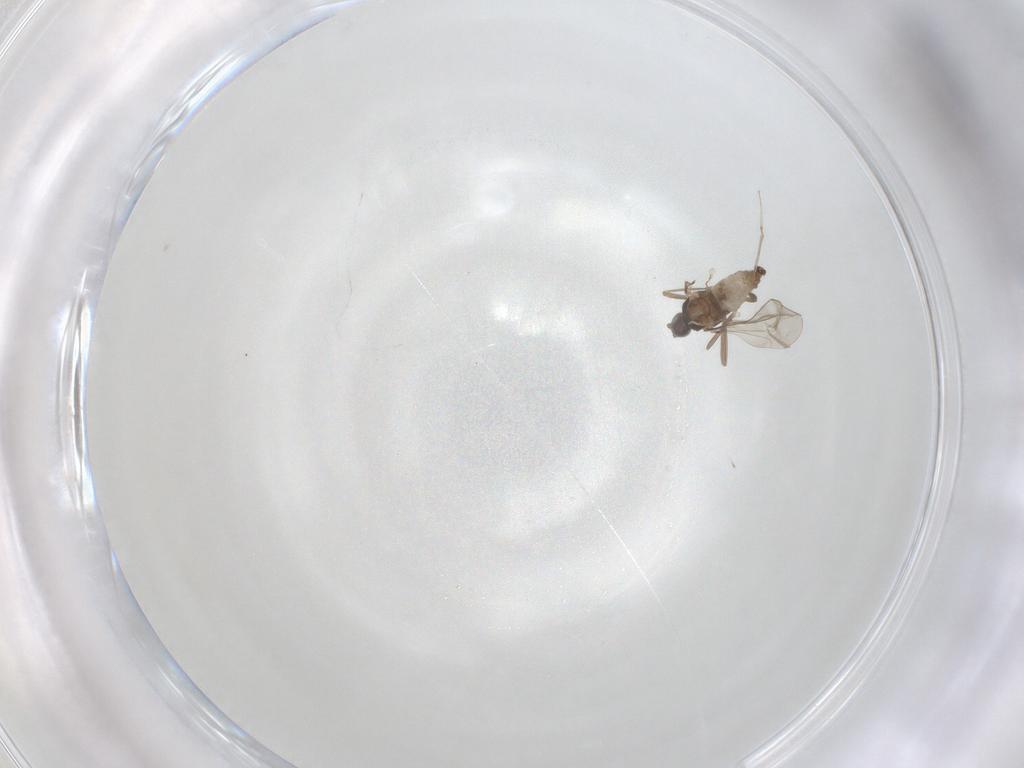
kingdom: Animalia
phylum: Arthropoda
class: Insecta
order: Diptera
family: Cecidomyiidae
